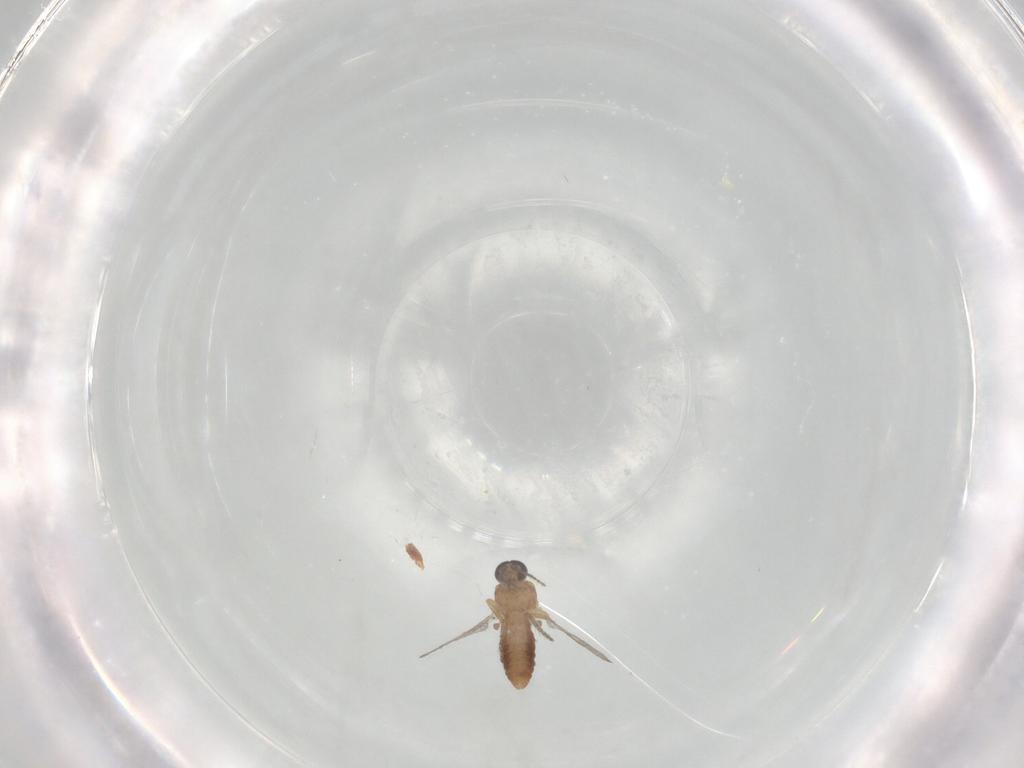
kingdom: Animalia
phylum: Arthropoda
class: Insecta
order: Diptera
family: Ceratopogonidae
